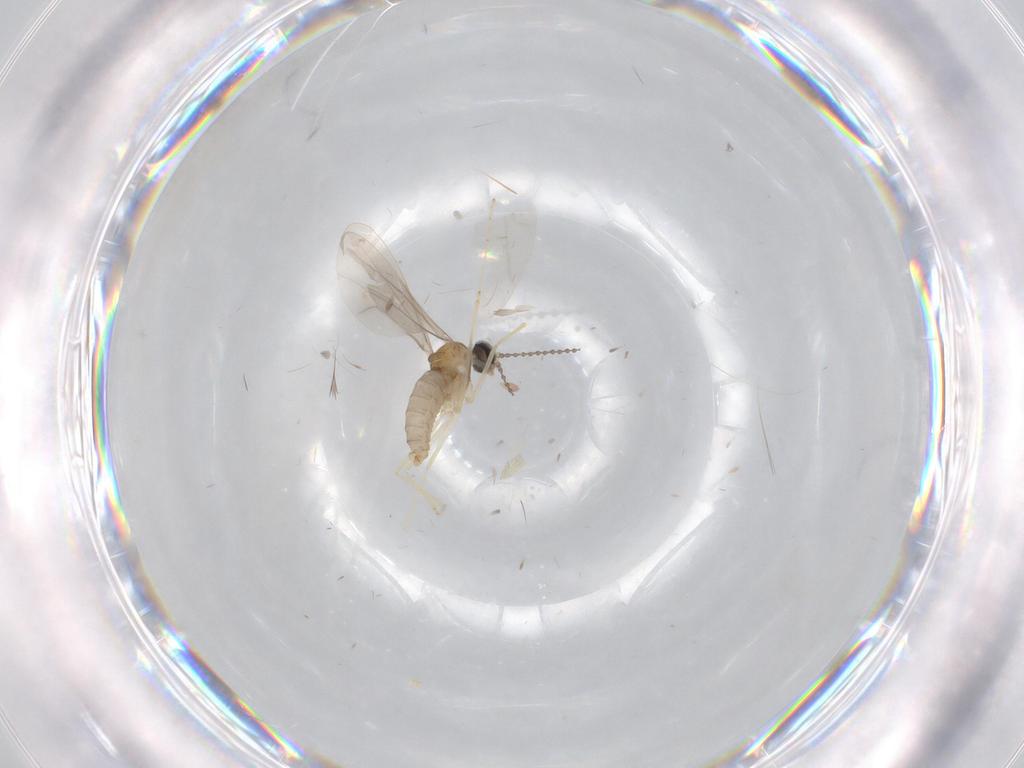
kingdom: Animalia
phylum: Arthropoda
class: Insecta
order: Diptera
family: Cecidomyiidae
